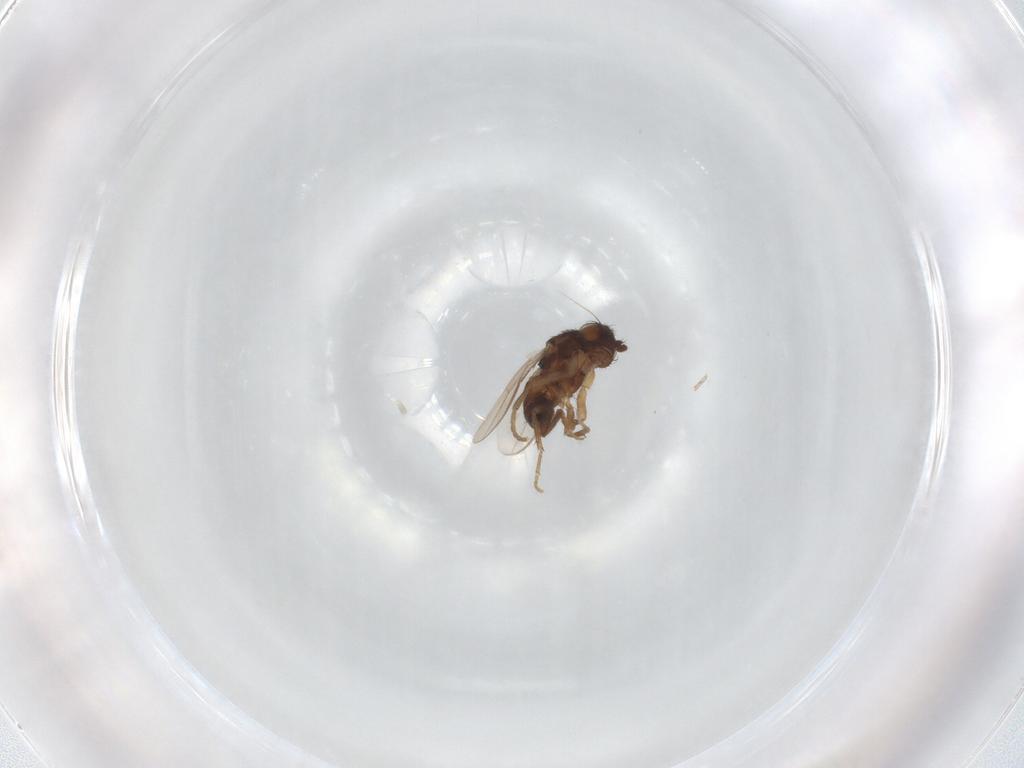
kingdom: Animalia
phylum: Arthropoda
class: Insecta
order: Diptera
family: Sphaeroceridae
